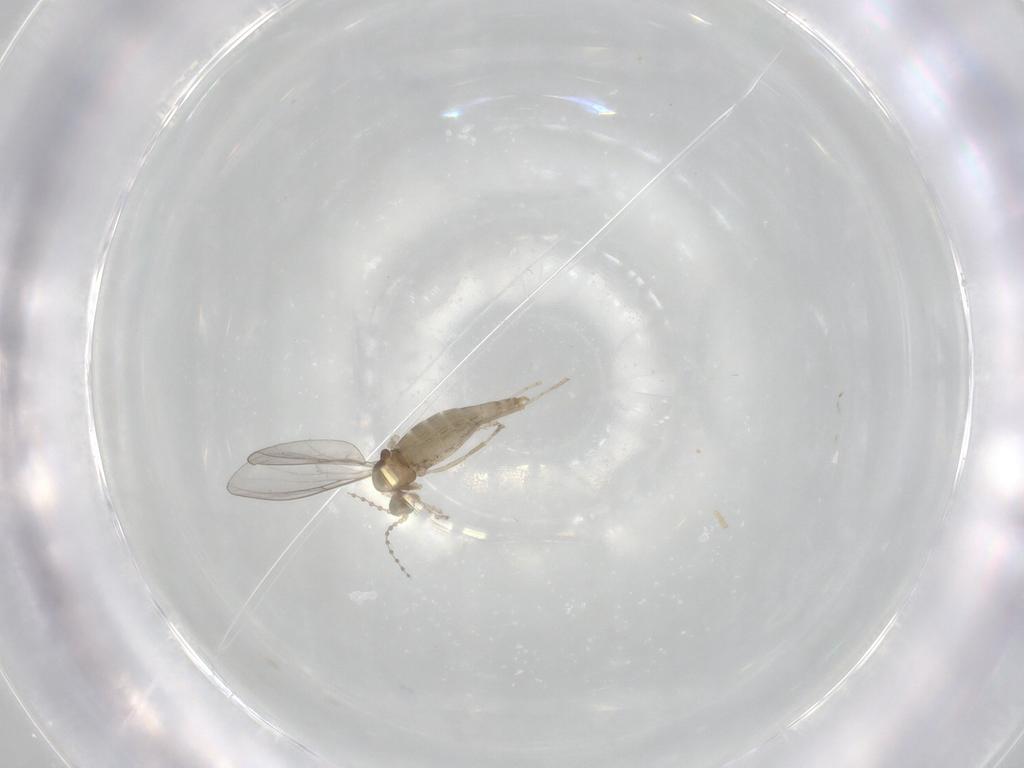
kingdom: Animalia
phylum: Arthropoda
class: Insecta
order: Diptera
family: Cecidomyiidae
